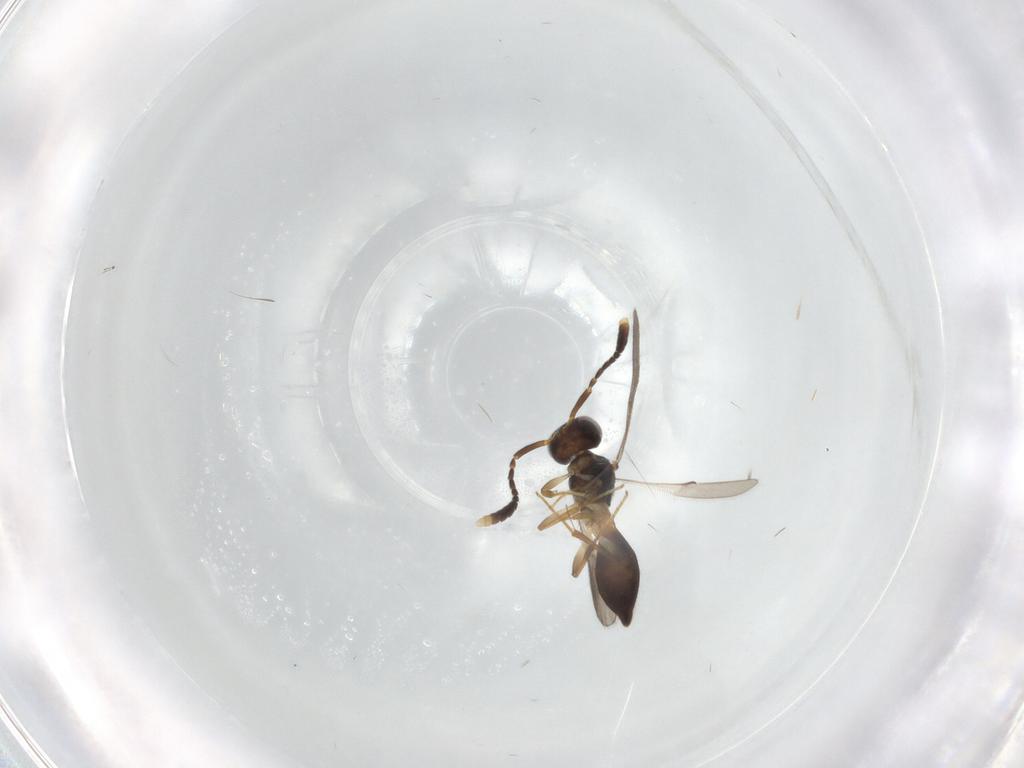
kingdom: Animalia
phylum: Arthropoda
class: Insecta
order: Hymenoptera
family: Scelionidae
